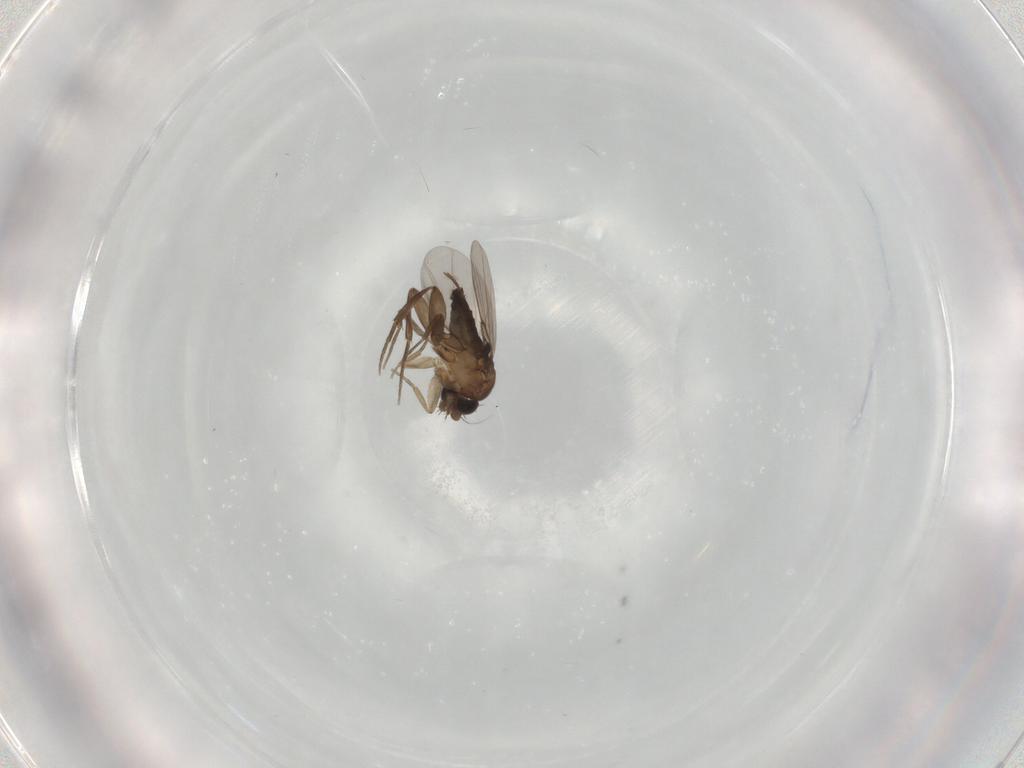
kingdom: Animalia
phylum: Arthropoda
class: Insecta
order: Diptera
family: Phoridae
